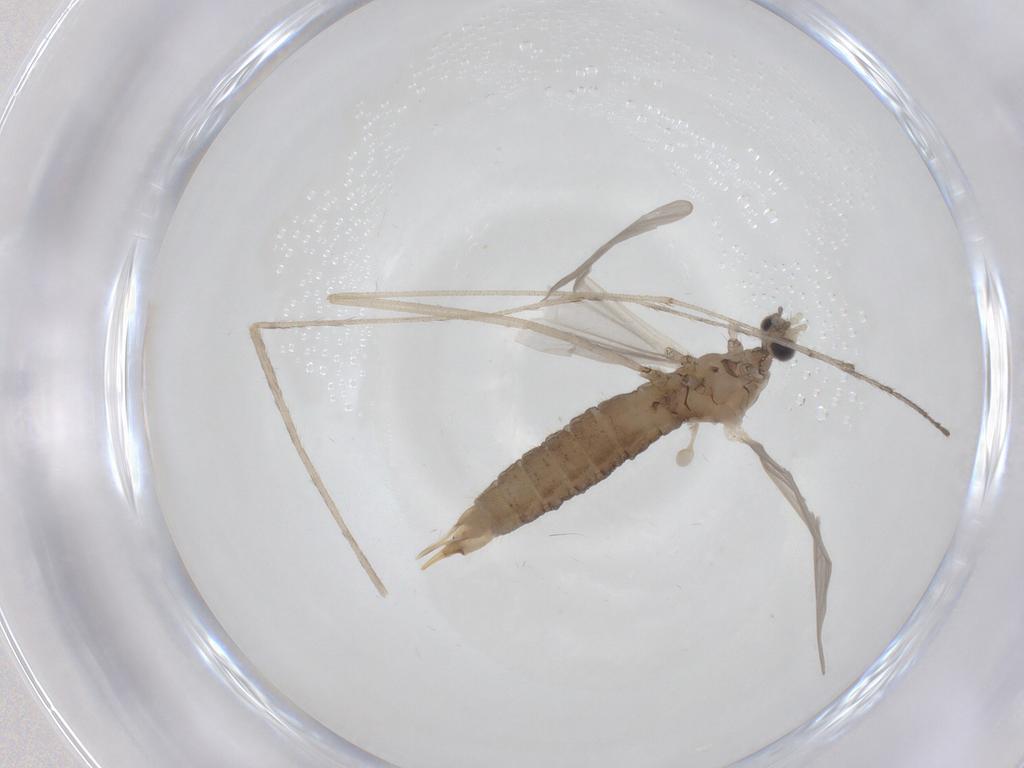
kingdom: Animalia
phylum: Arthropoda
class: Insecta
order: Diptera
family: Limoniidae
